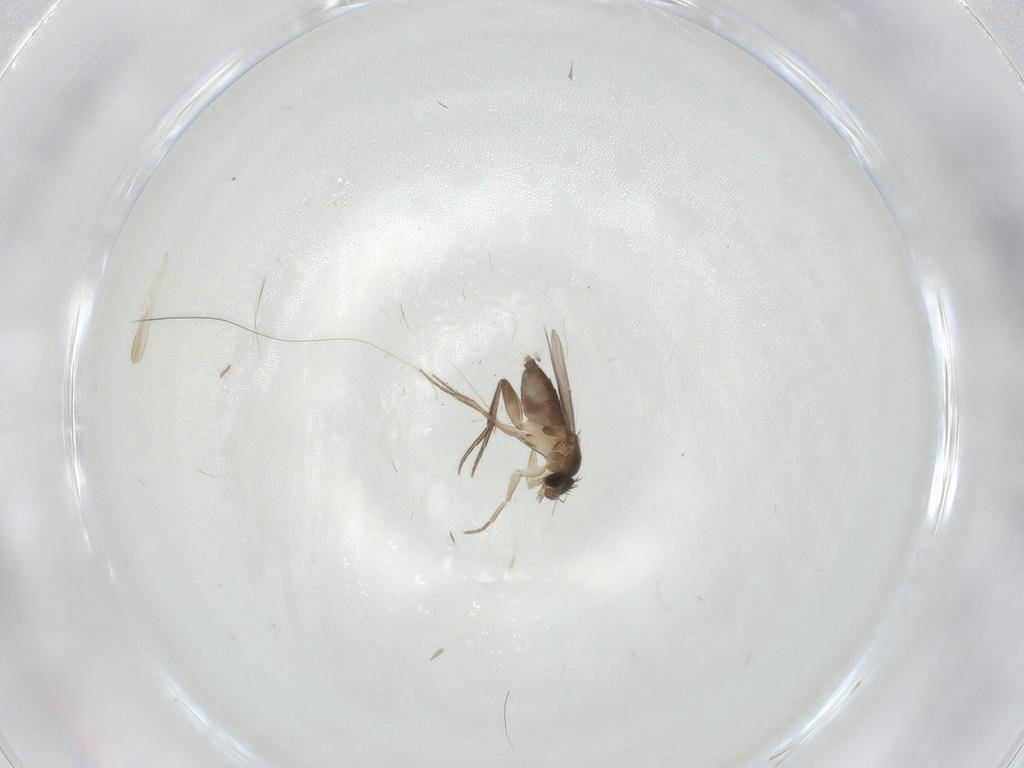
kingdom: Animalia
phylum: Arthropoda
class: Insecta
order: Diptera
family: Phoridae
